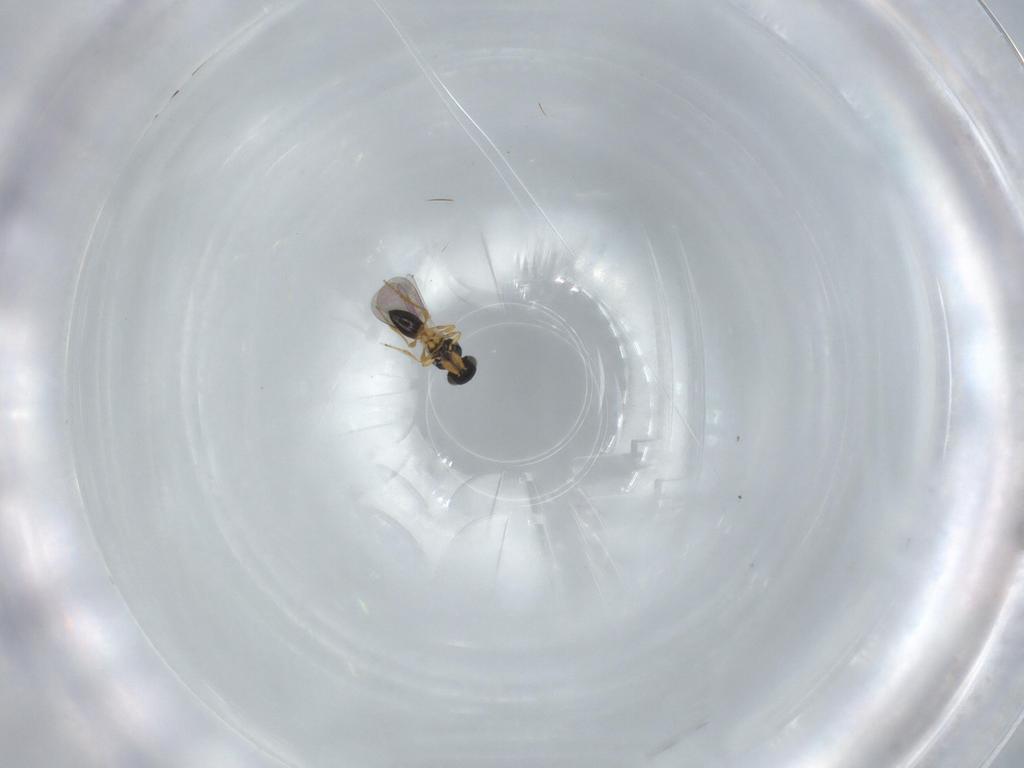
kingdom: Animalia
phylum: Arthropoda
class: Insecta
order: Hymenoptera
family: Platygastridae
